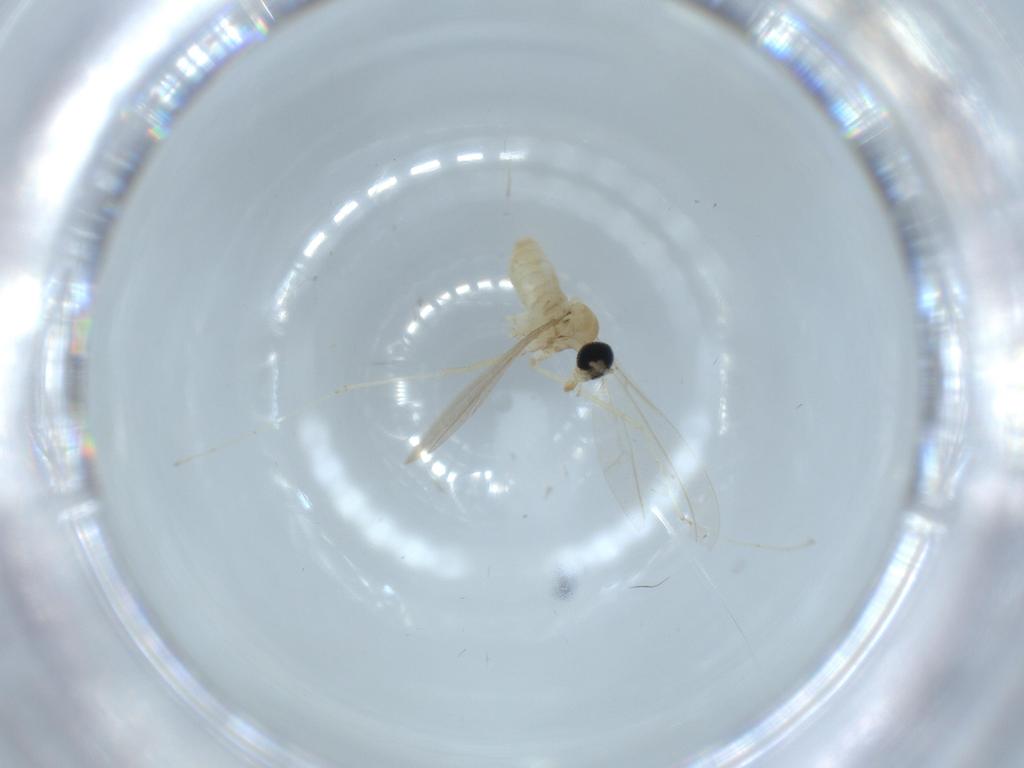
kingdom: Animalia
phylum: Arthropoda
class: Insecta
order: Diptera
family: Cecidomyiidae
